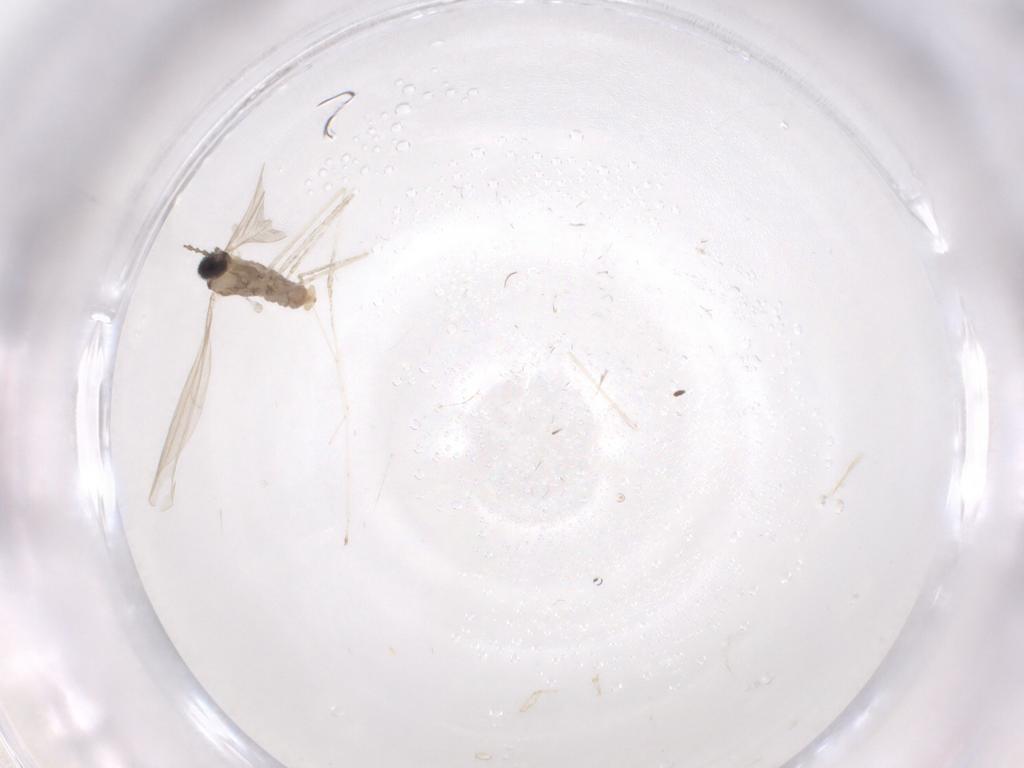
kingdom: Animalia
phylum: Arthropoda
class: Insecta
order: Diptera
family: Cecidomyiidae
